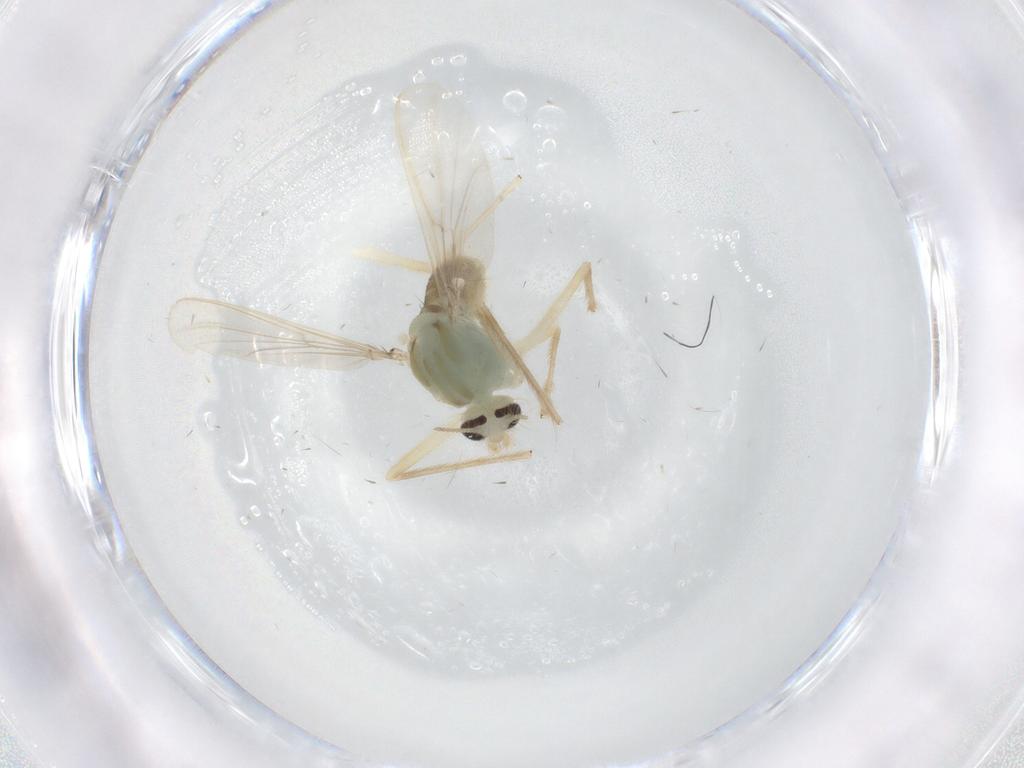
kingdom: Animalia
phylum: Arthropoda
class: Insecta
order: Diptera
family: Chironomidae
